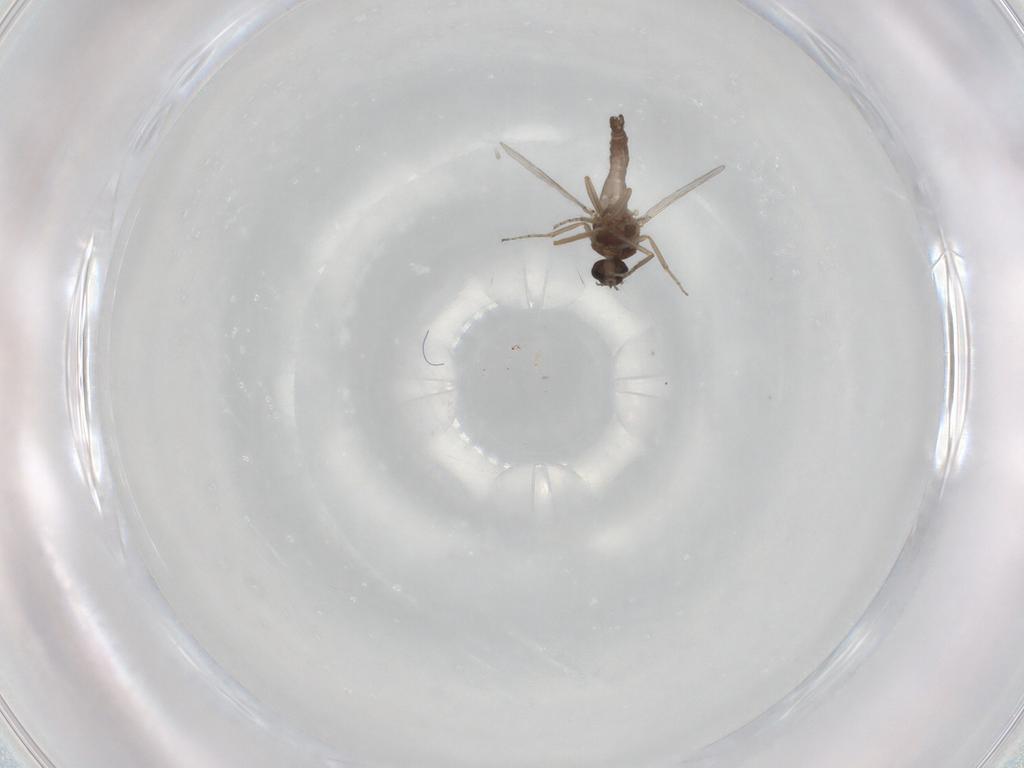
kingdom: Animalia
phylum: Arthropoda
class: Insecta
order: Diptera
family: Ceratopogonidae
